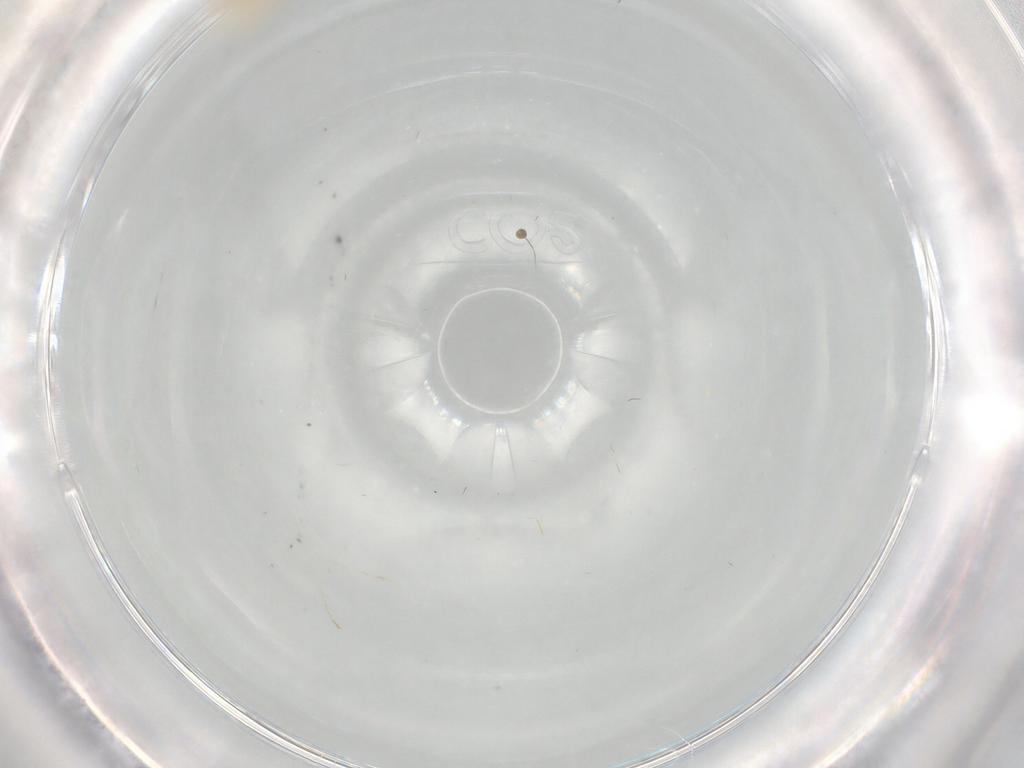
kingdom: Animalia
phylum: Arthropoda
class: Insecta
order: Diptera
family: Cecidomyiidae
